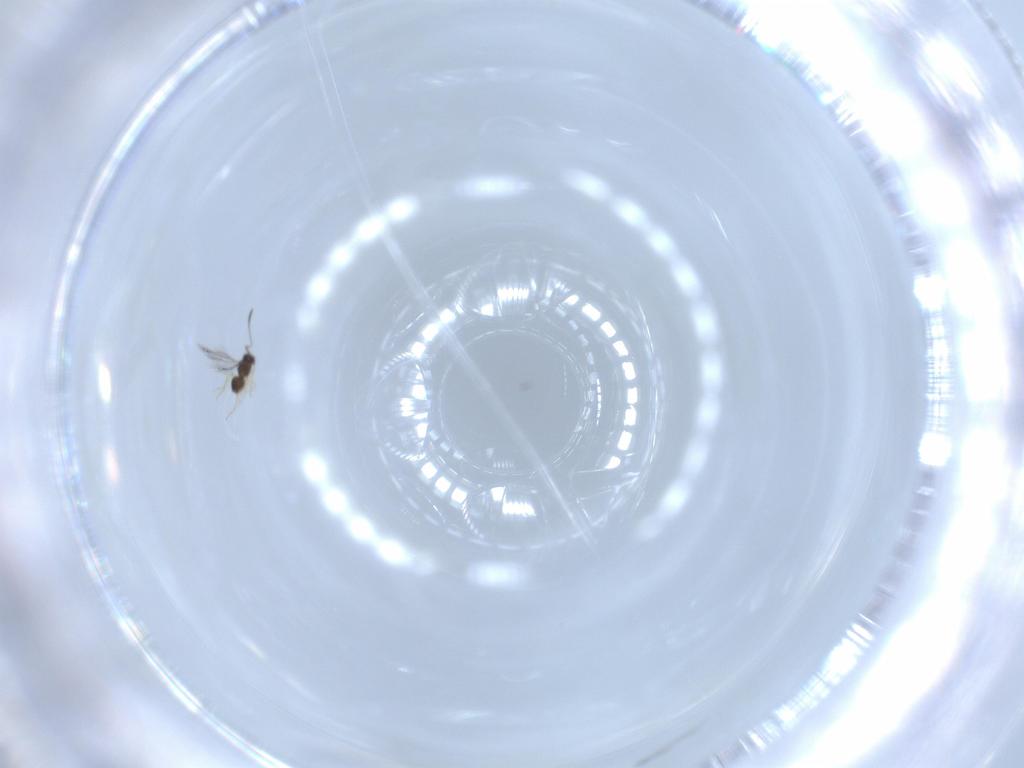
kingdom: Animalia
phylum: Arthropoda
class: Insecta
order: Hymenoptera
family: Mymaridae
